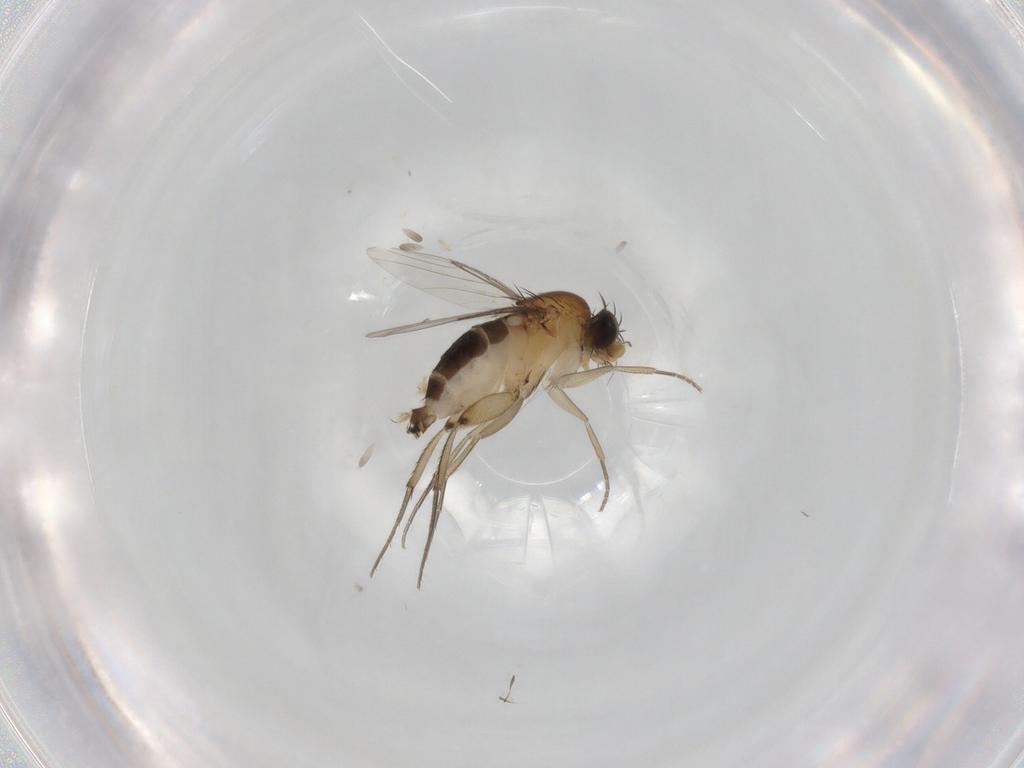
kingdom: Animalia
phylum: Arthropoda
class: Insecta
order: Diptera
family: Phoridae
